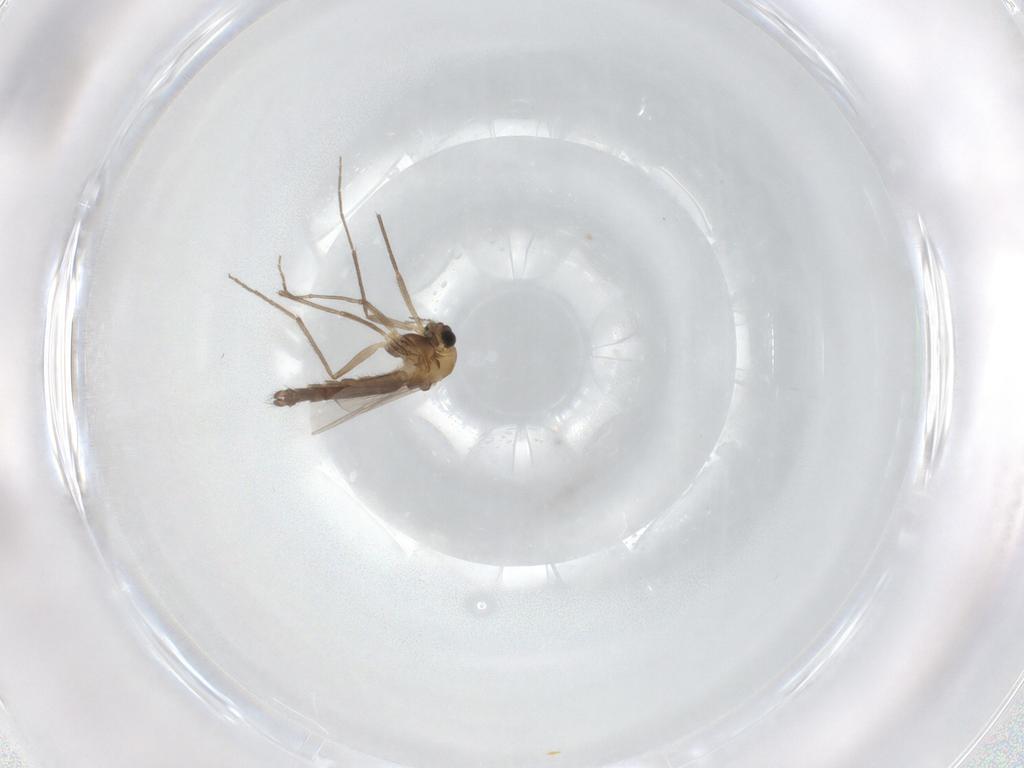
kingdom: Animalia
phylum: Arthropoda
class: Insecta
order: Diptera
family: Chironomidae
